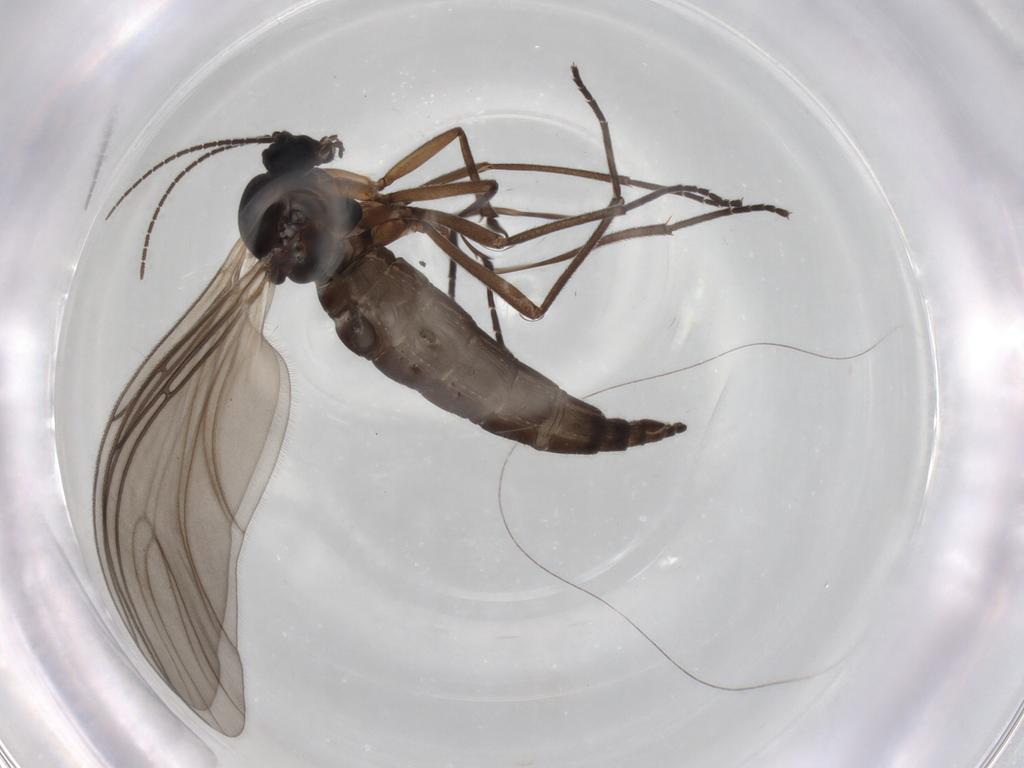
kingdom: Animalia
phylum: Arthropoda
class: Insecta
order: Diptera
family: Sciaridae
